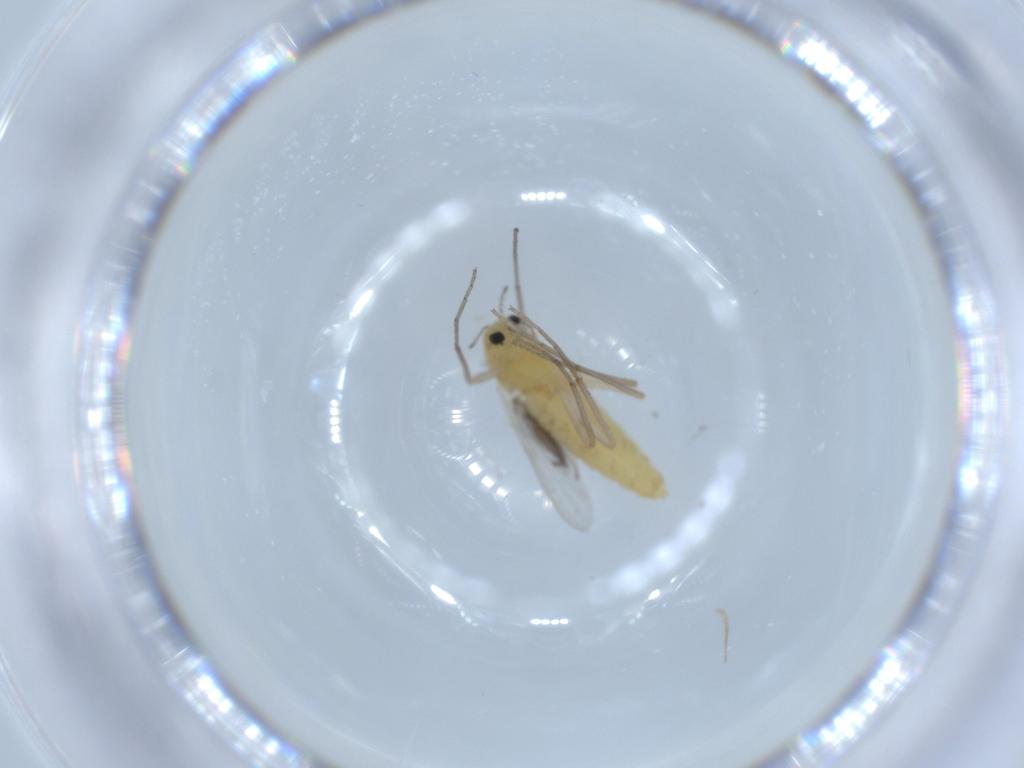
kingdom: Animalia
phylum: Arthropoda
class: Insecta
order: Diptera
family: Chironomidae
